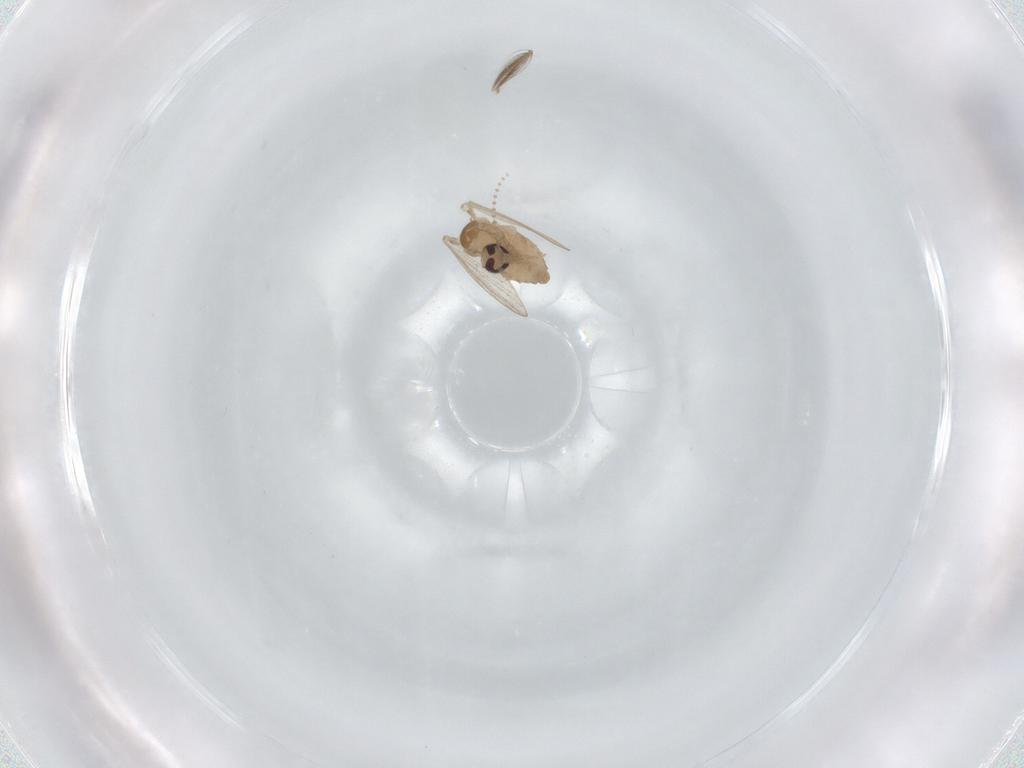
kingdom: Animalia
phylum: Arthropoda
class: Insecta
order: Diptera
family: Psychodidae
